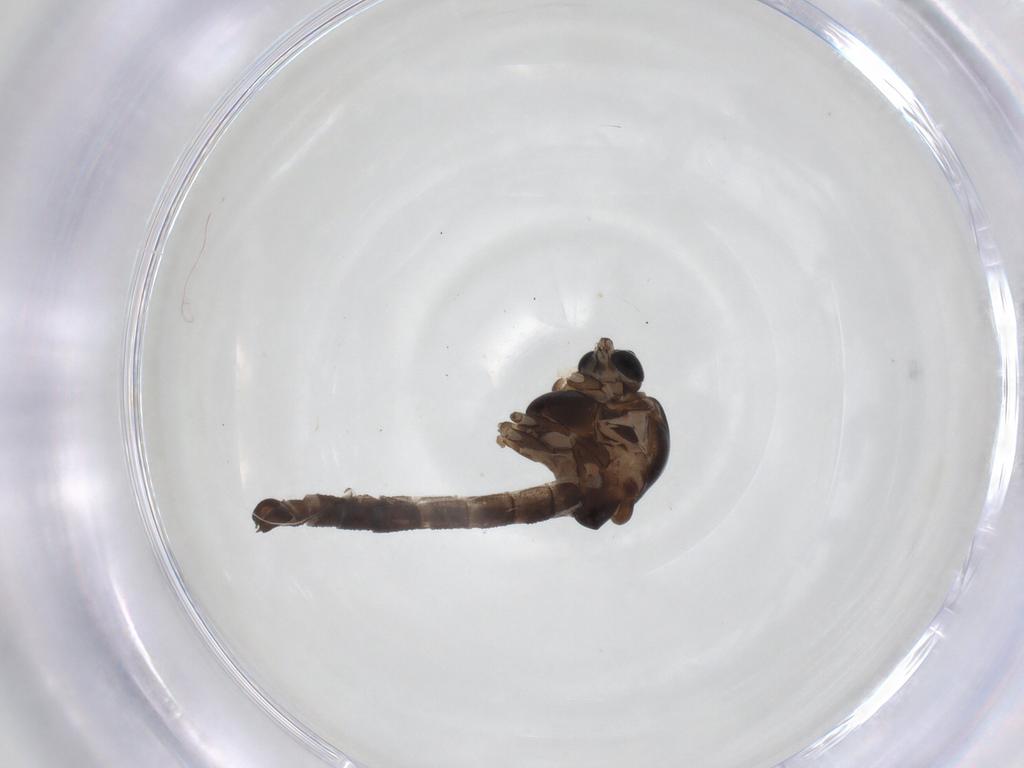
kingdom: Animalia
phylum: Arthropoda
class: Insecta
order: Diptera
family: Chironomidae
